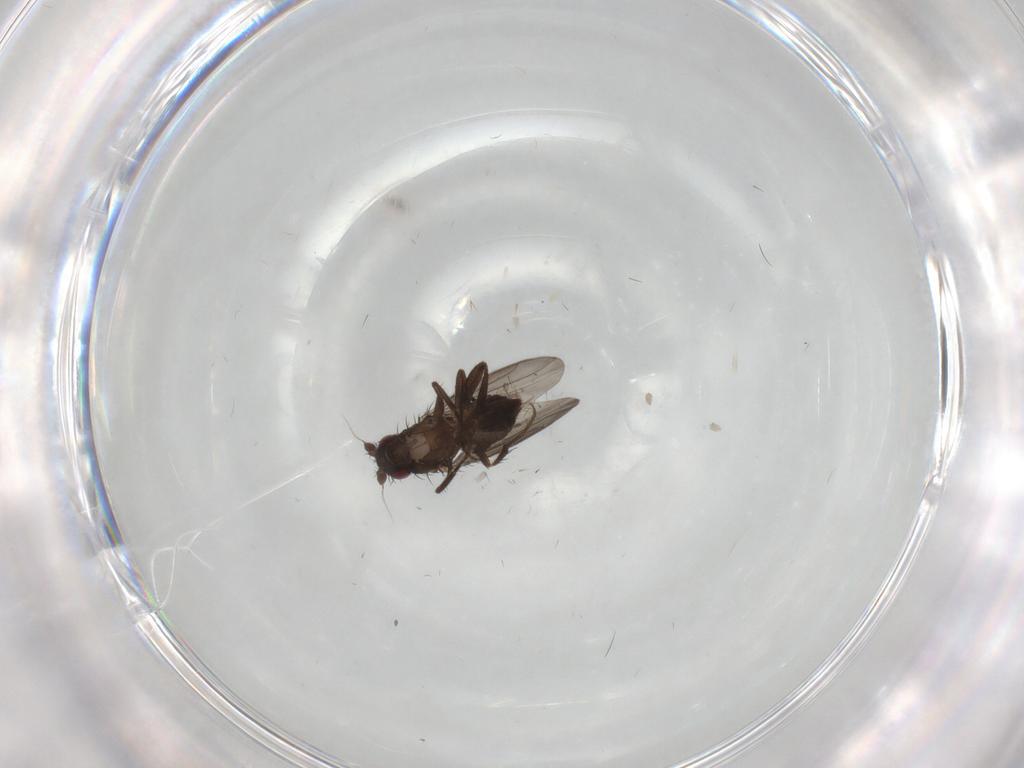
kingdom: Animalia
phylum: Arthropoda
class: Insecta
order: Diptera
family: Sphaeroceridae
